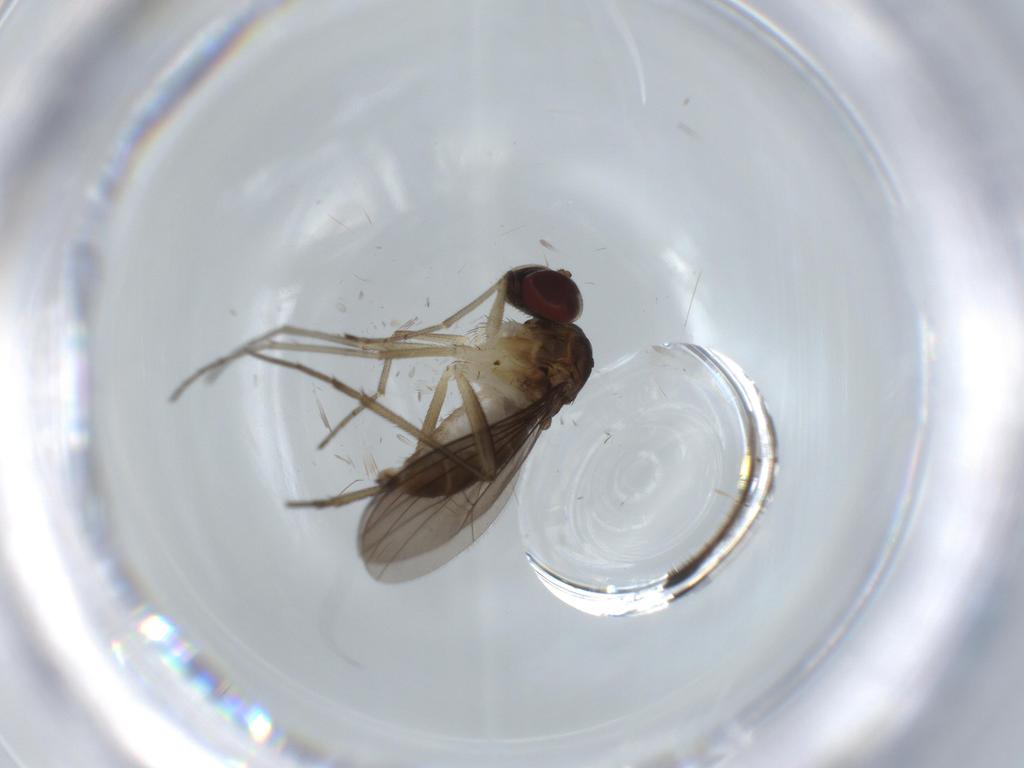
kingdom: Animalia
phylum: Arthropoda
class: Insecta
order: Diptera
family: Dolichopodidae
